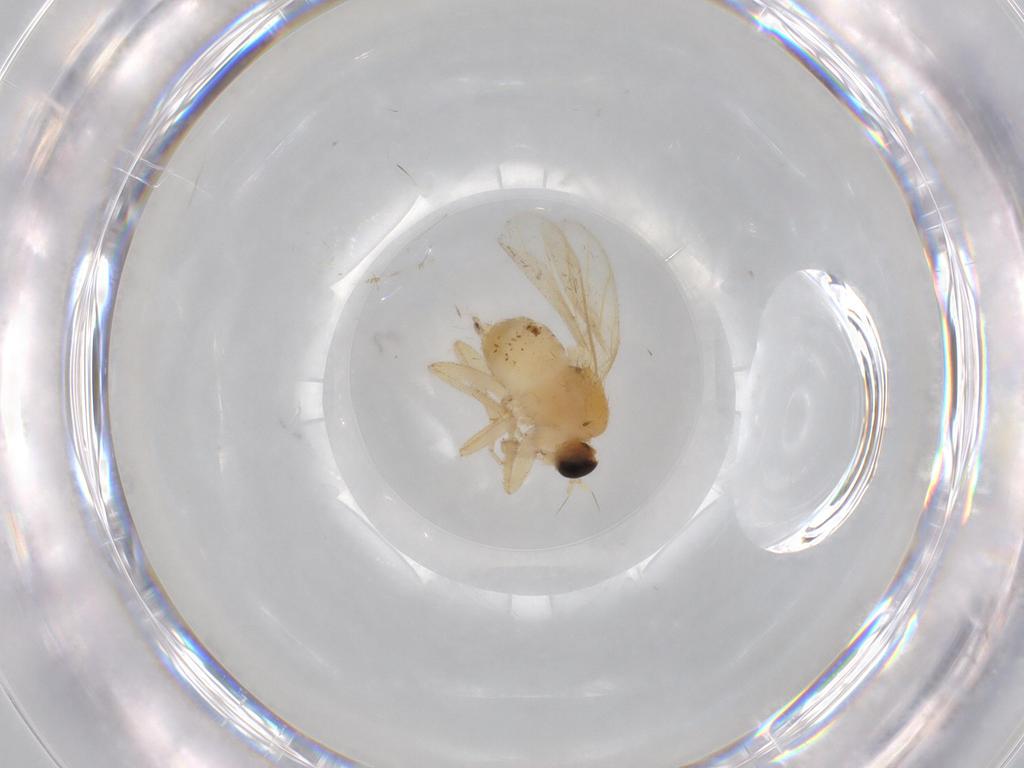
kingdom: Animalia
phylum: Arthropoda
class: Insecta
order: Diptera
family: Hybotidae
